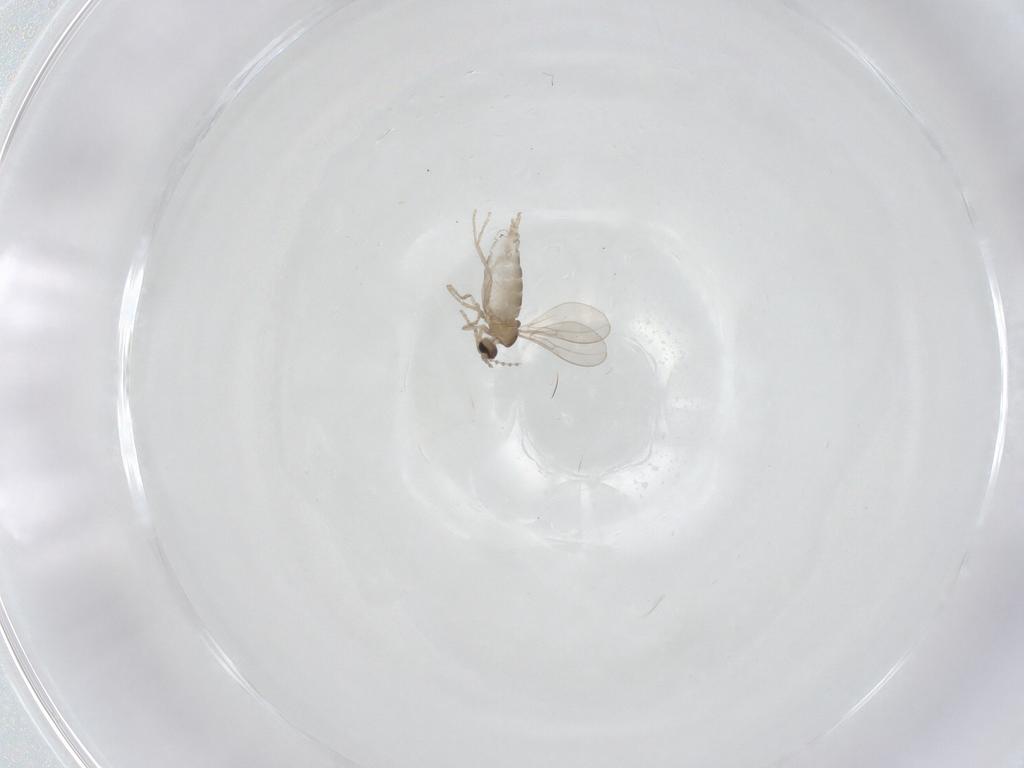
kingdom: Animalia
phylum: Arthropoda
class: Insecta
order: Diptera
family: Cecidomyiidae
